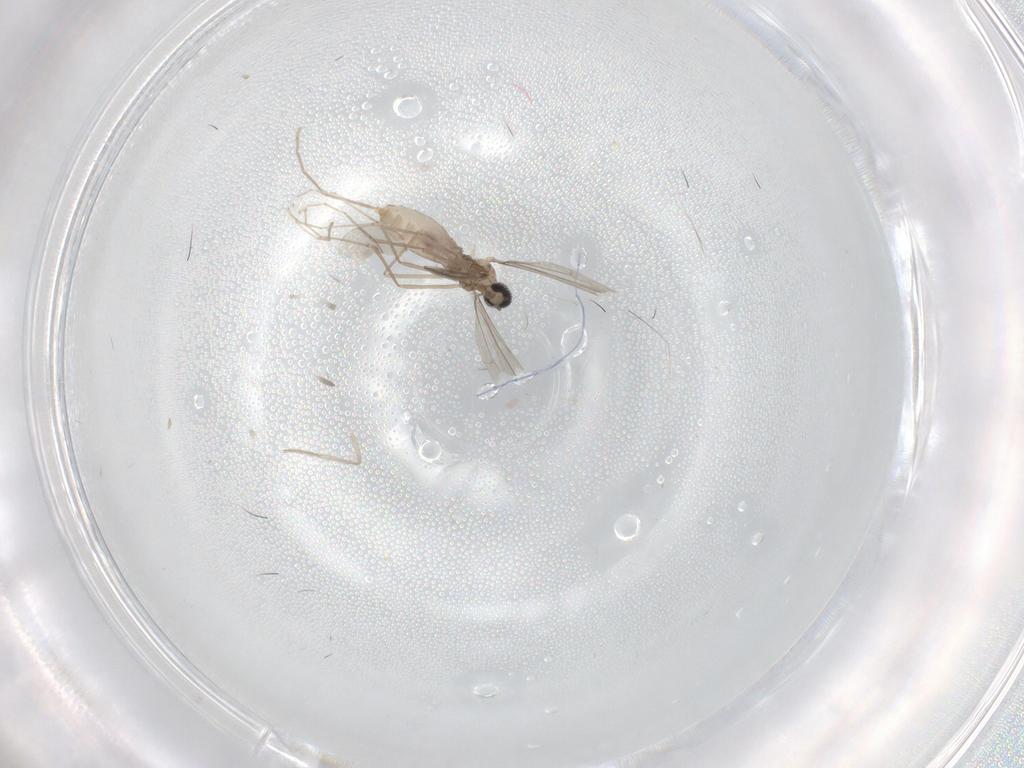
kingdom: Animalia
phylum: Arthropoda
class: Insecta
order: Diptera
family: Chironomidae
